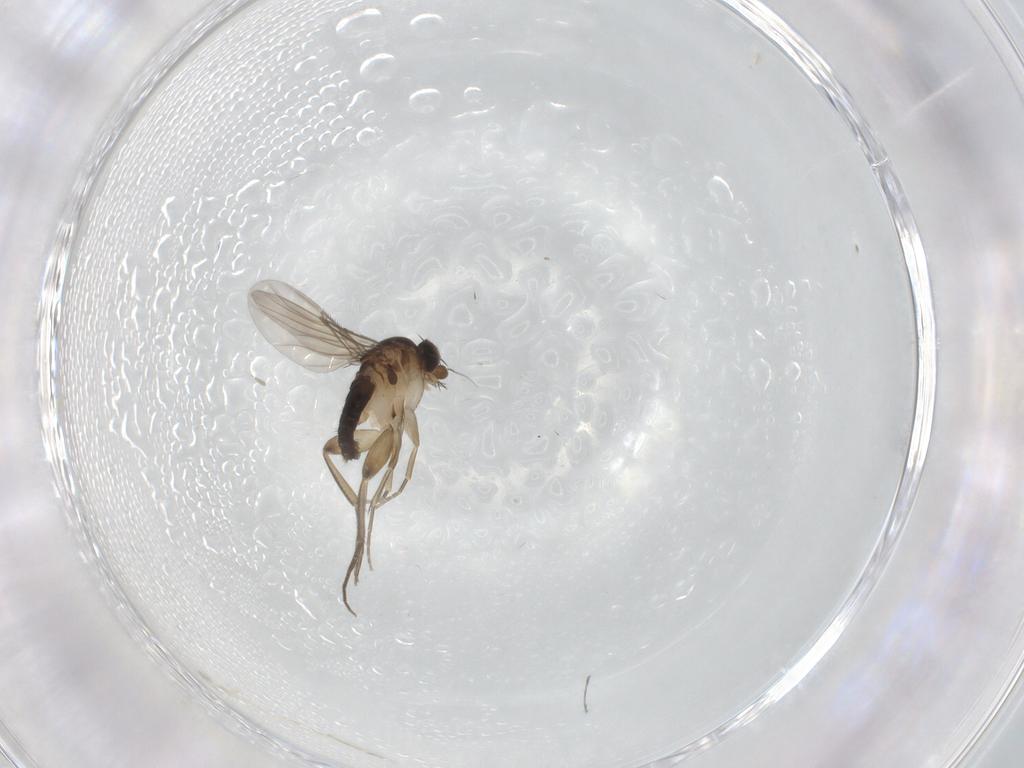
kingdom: Animalia
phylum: Arthropoda
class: Insecta
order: Diptera
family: Phoridae
